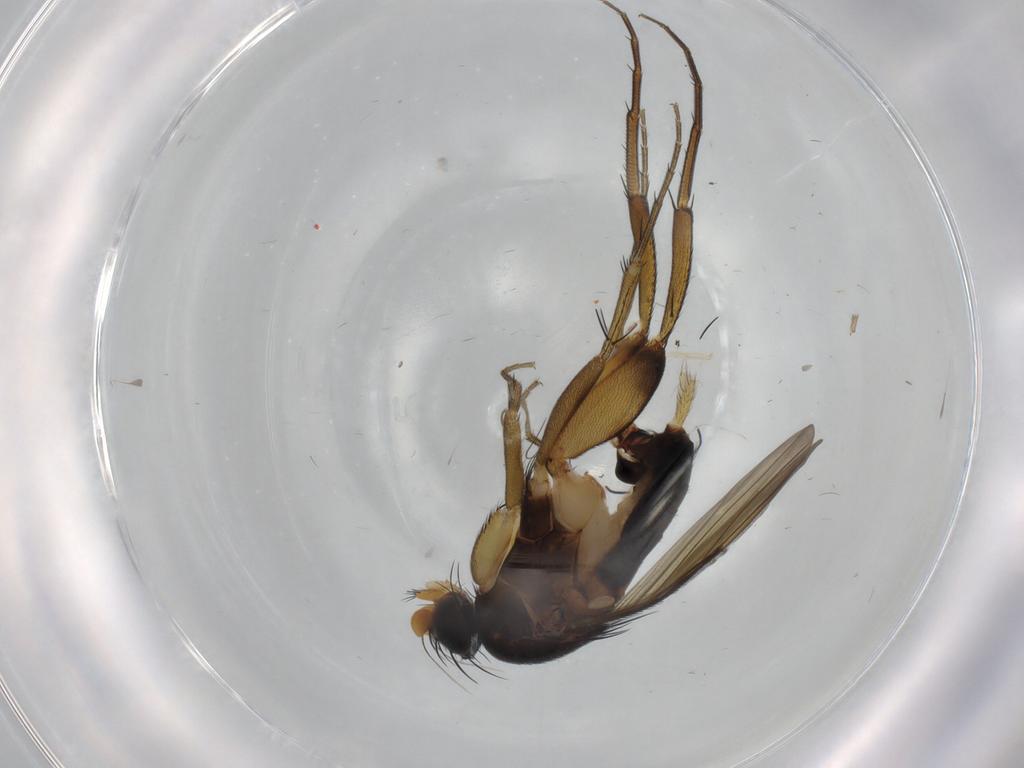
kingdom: Animalia
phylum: Arthropoda
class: Insecta
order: Diptera
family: Phoridae
